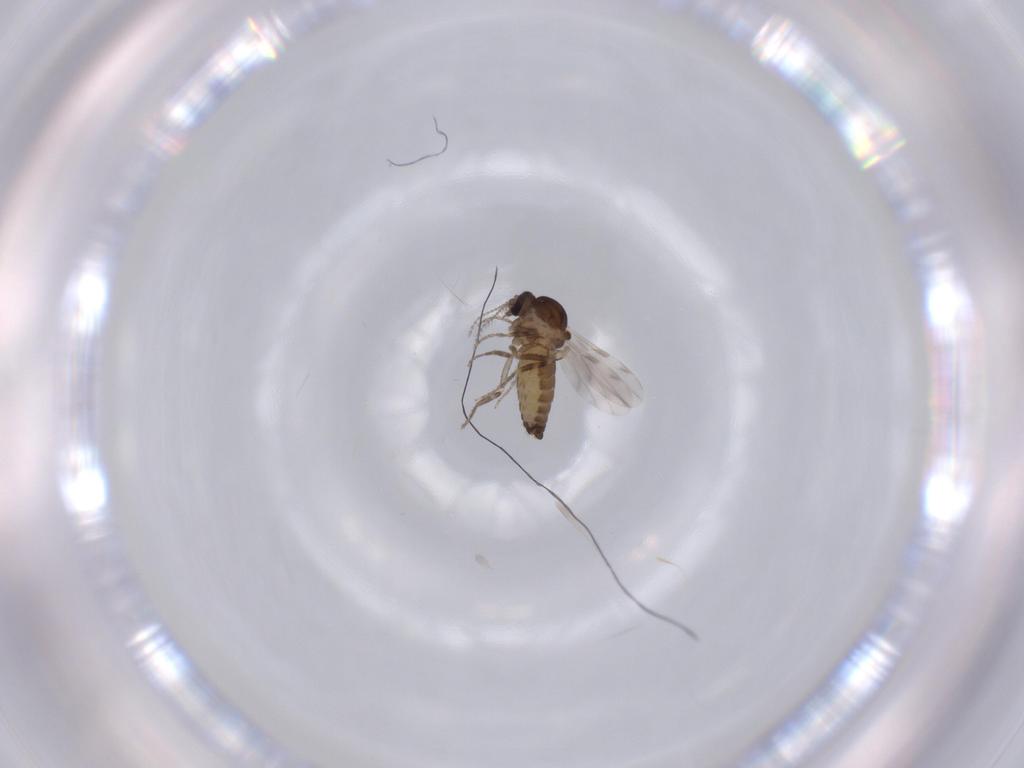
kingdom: Animalia
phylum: Arthropoda
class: Insecta
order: Diptera
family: Ceratopogonidae
